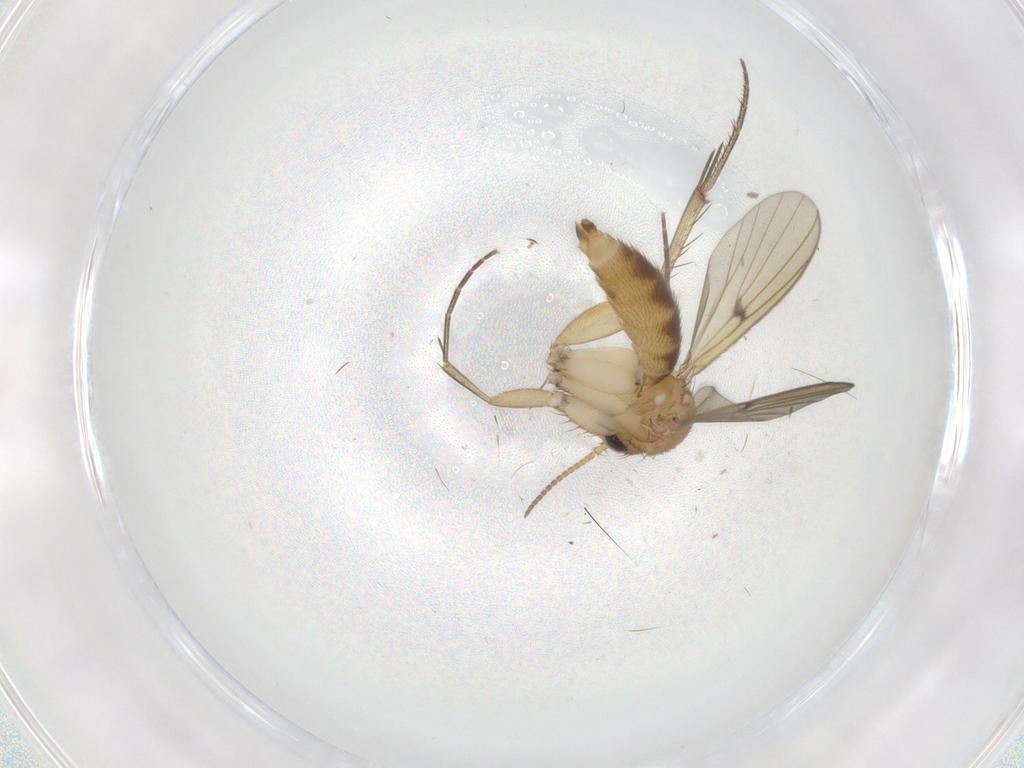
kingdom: Animalia
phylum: Arthropoda
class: Insecta
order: Diptera
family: Mycetophilidae
